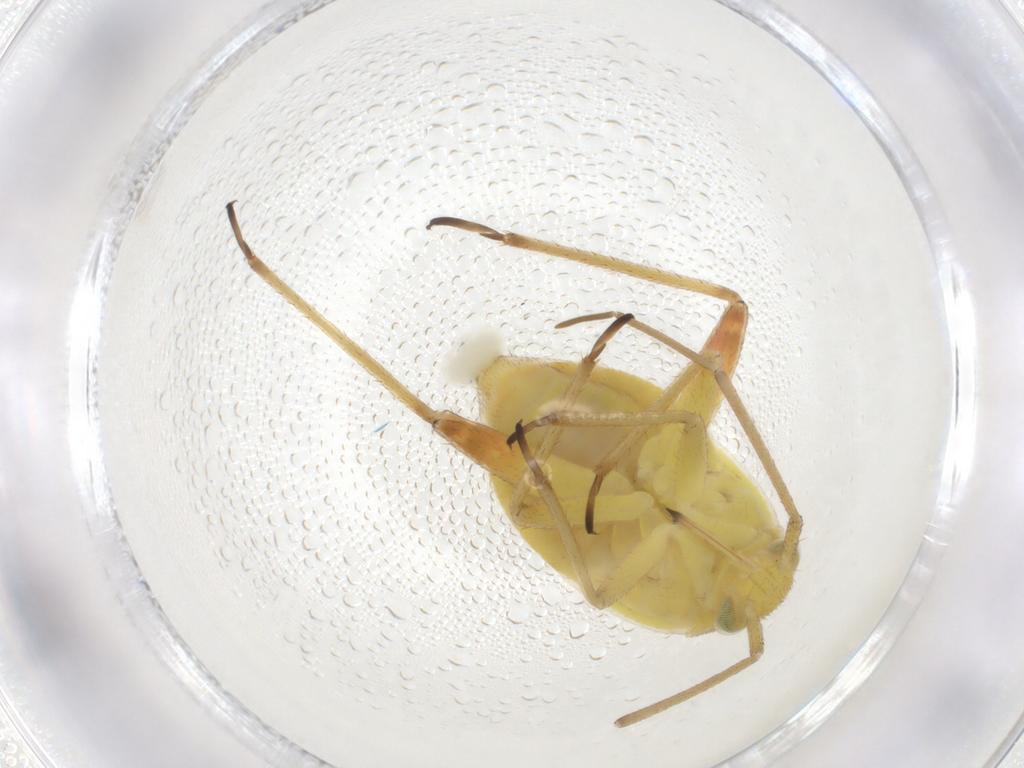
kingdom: Animalia
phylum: Arthropoda
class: Insecta
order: Hemiptera
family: Miridae
